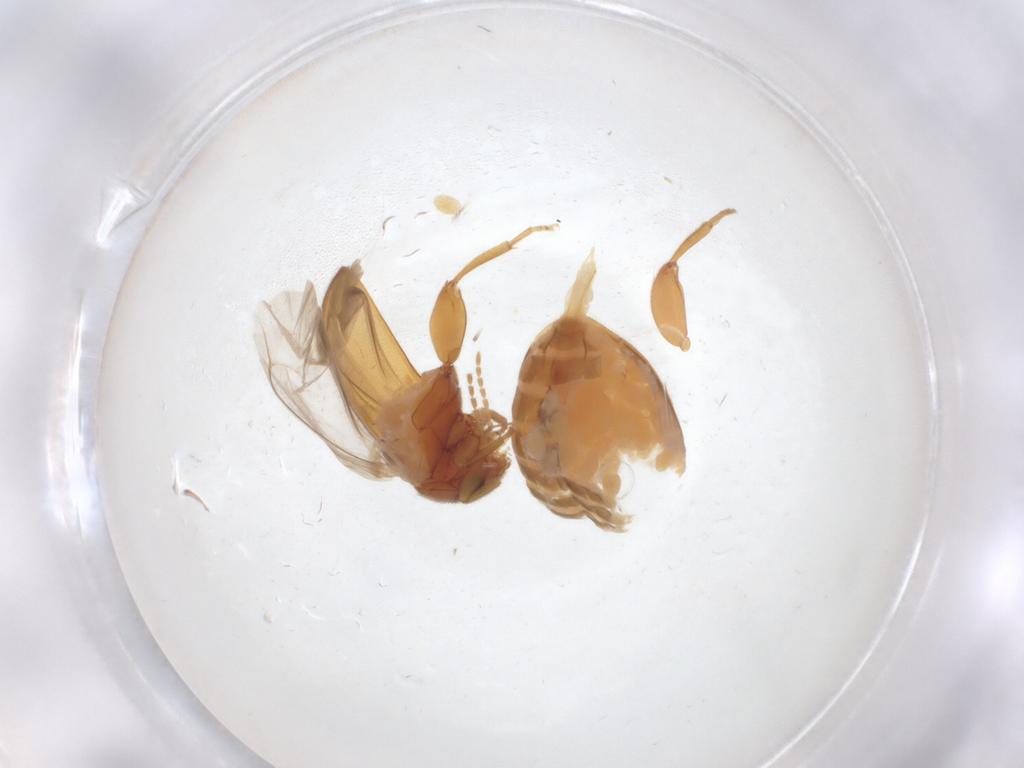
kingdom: Animalia
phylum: Arthropoda
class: Insecta
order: Coleoptera
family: Scirtidae
